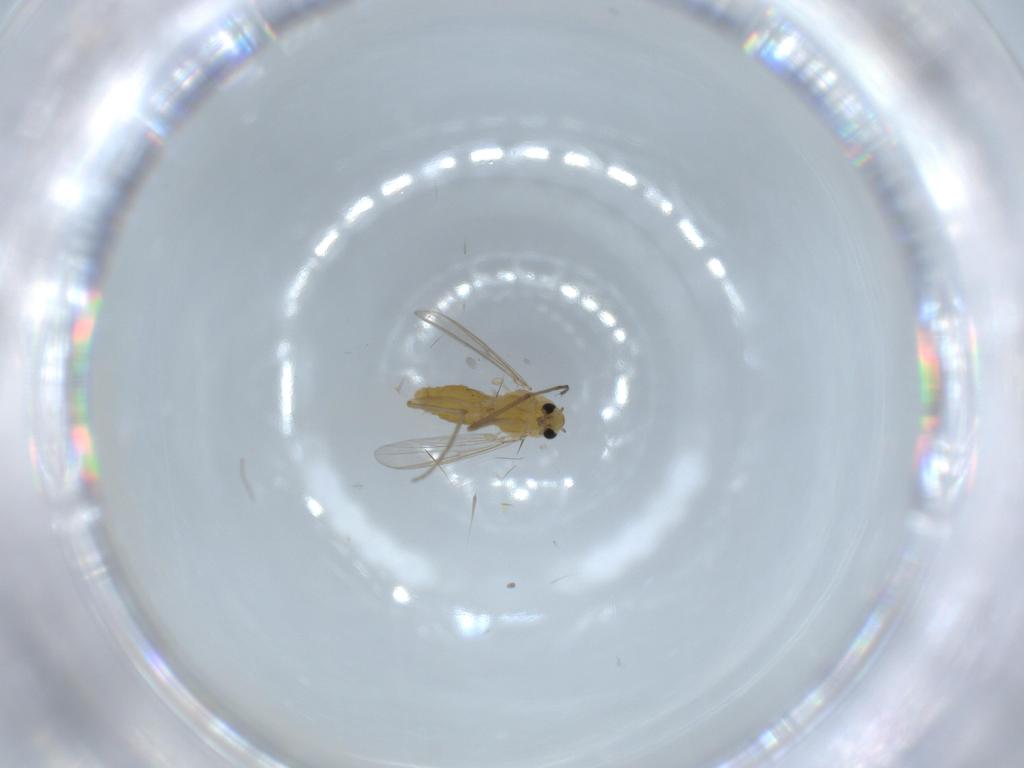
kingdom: Animalia
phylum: Arthropoda
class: Insecta
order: Diptera
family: Chironomidae
